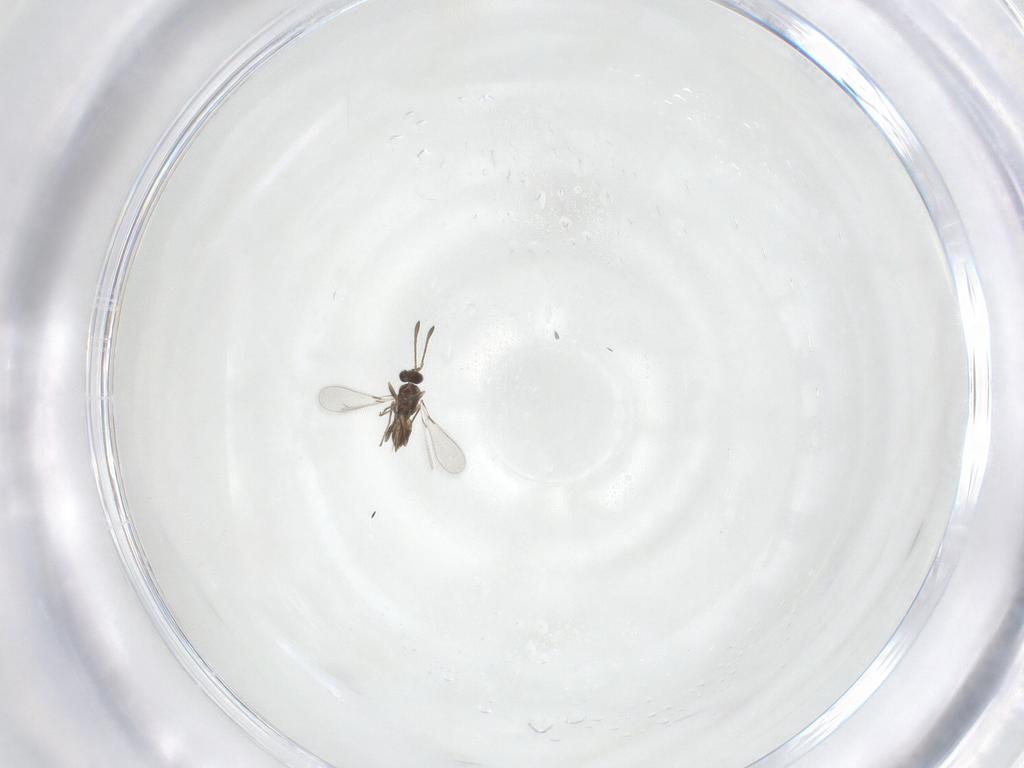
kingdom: Animalia
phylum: Arthropoda
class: Insecta
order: Hymenoptera
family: Mymaridae
